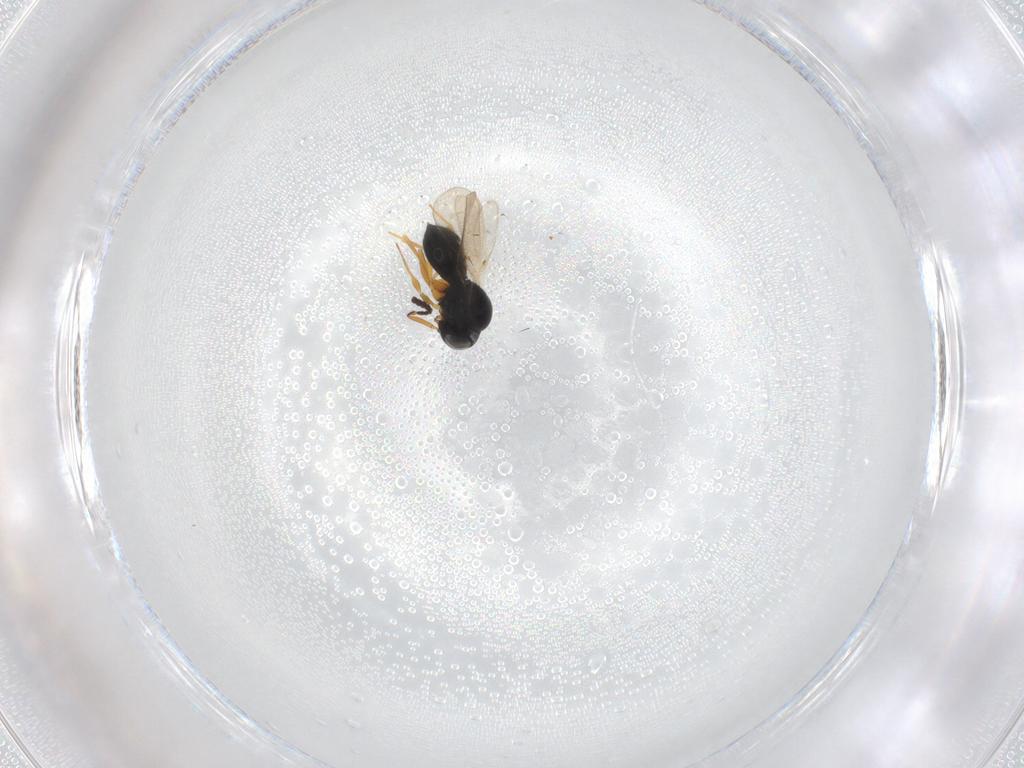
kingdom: Animalia
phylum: Arthropoda
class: Insecta
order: Hymenoptera
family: Scelionidae
